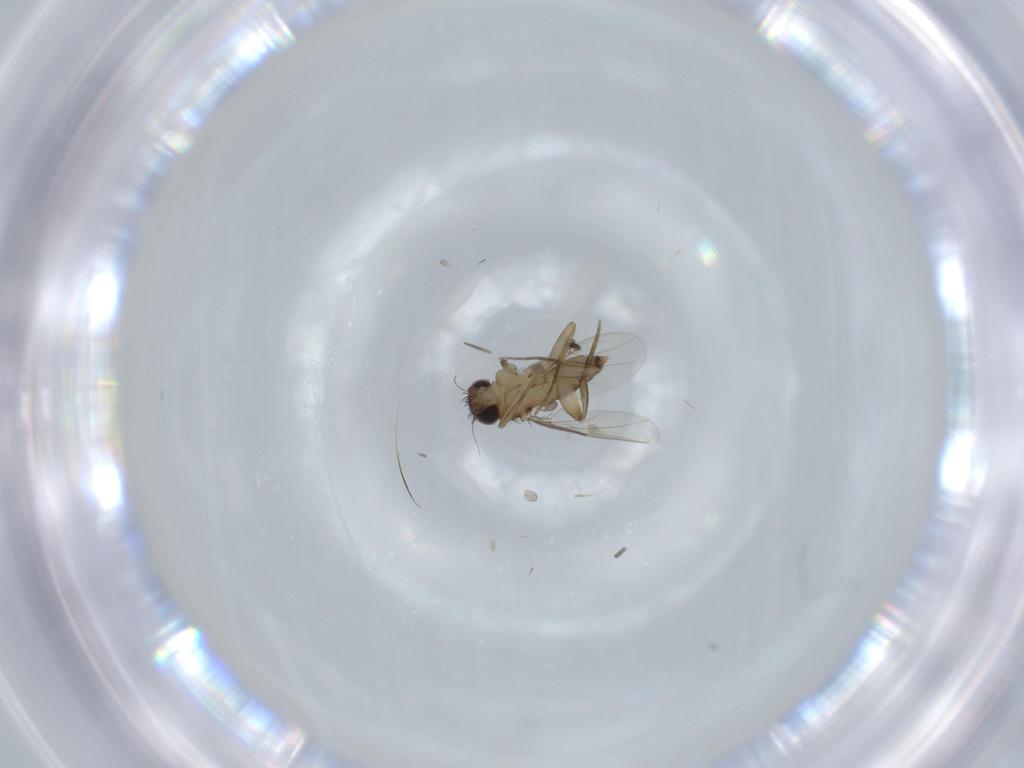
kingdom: Animalia
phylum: Arthropoda
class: Insecta
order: Diptera
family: Phoridae
